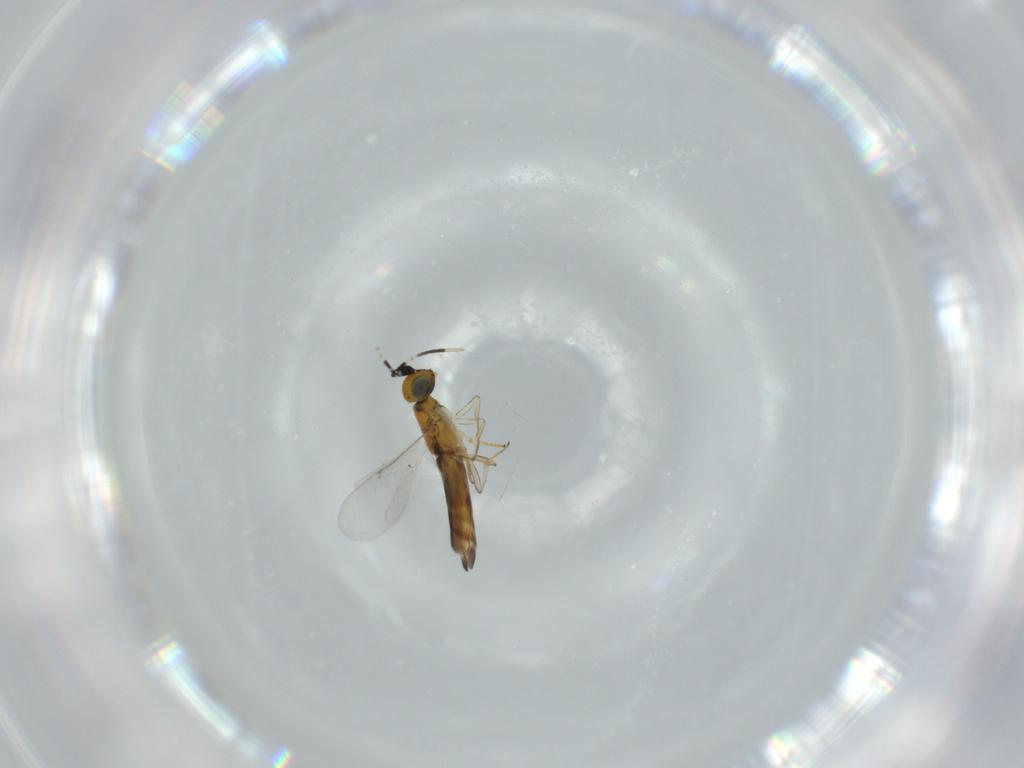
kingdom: Animalia
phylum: Arthropoda
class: Insecta
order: Hymenoptera
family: Encyrtidae
